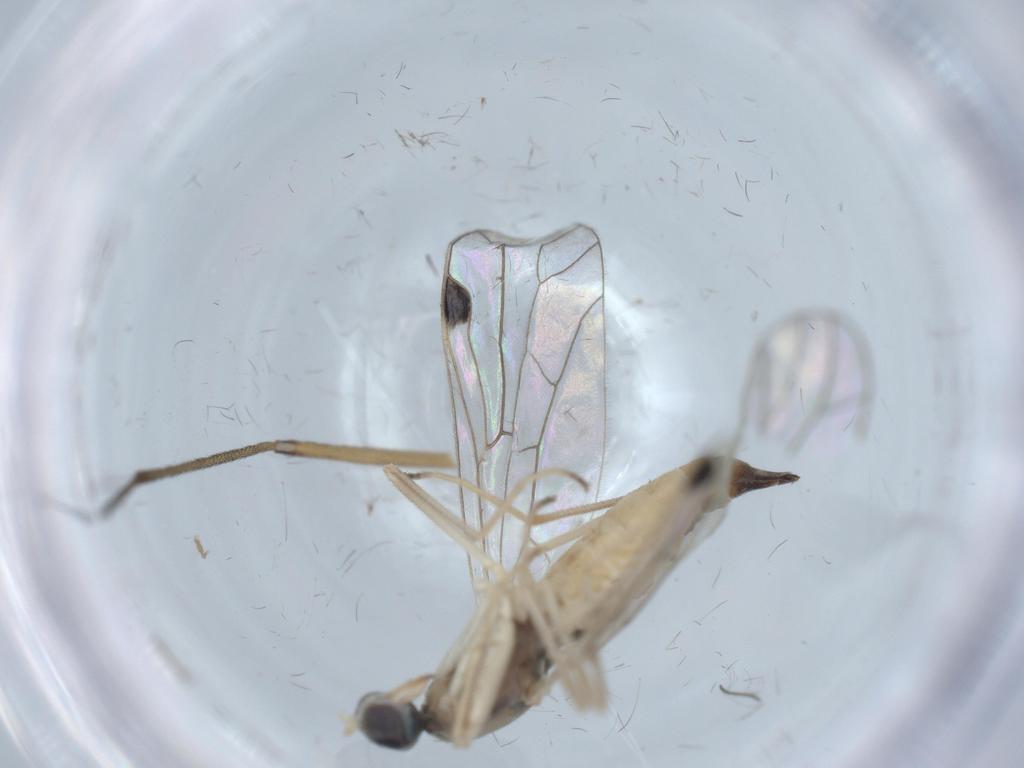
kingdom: Animalia
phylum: Arthropoda
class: Insecta
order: Diptera
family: Empididae
